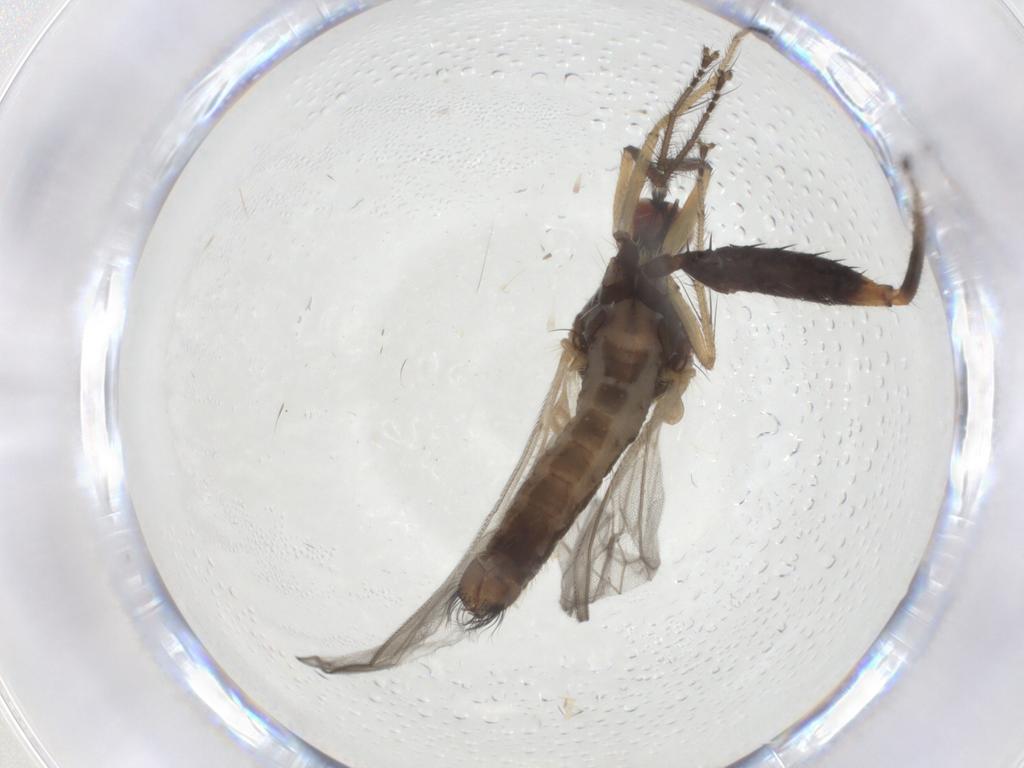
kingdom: Animalia
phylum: Arthropoda
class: Insecta
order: Diptera
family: Hybotidae
